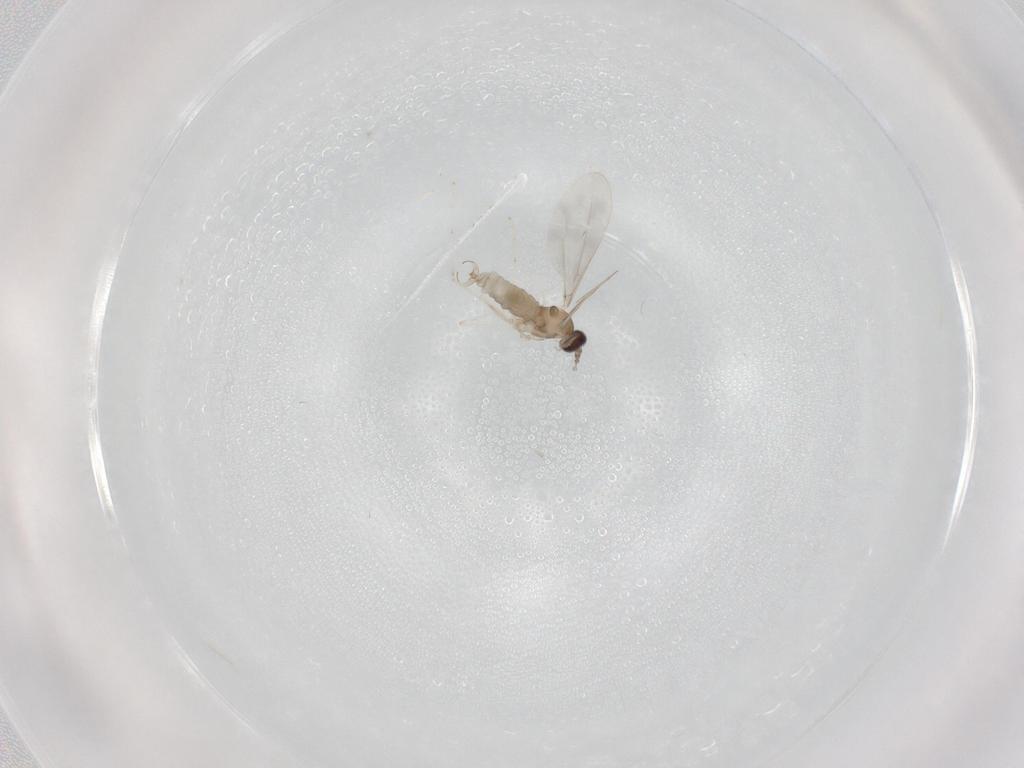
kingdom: Animalia
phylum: Arthropoda
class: Insecta
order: Diptera
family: Cecidomyiidae
